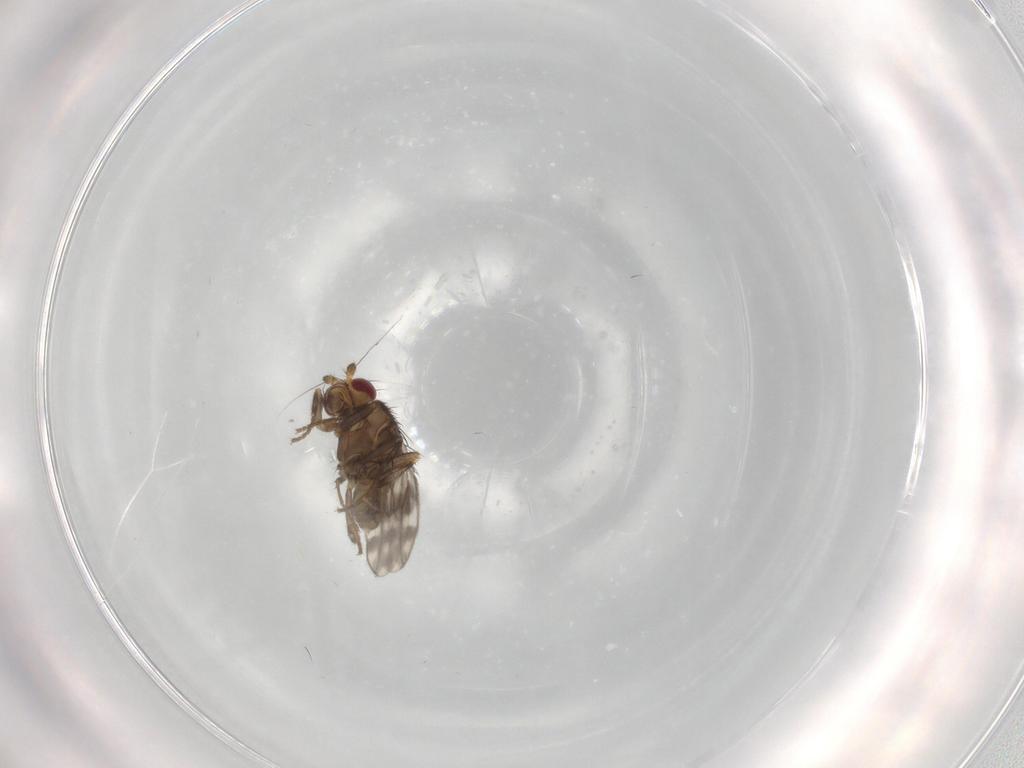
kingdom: Animalia
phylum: Arthropoda
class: Insecta
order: Diptera
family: Sphaeroceridae
